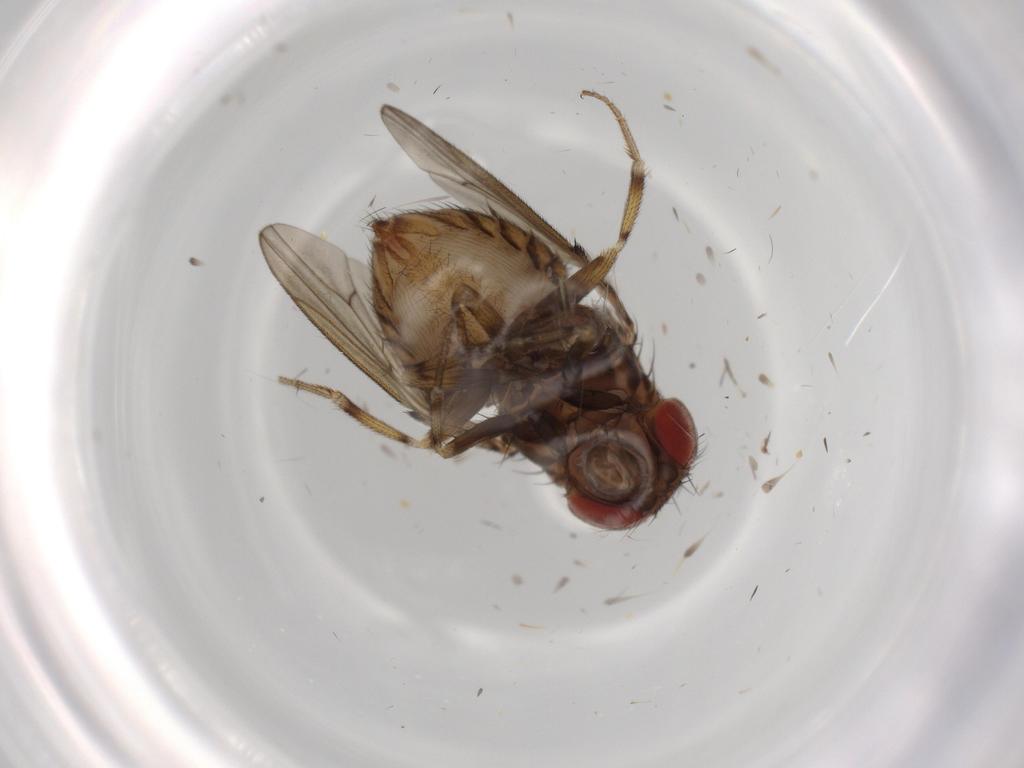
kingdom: Animalia
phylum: Arthropoda
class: Insecta
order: Diptera
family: Drosophilidae
